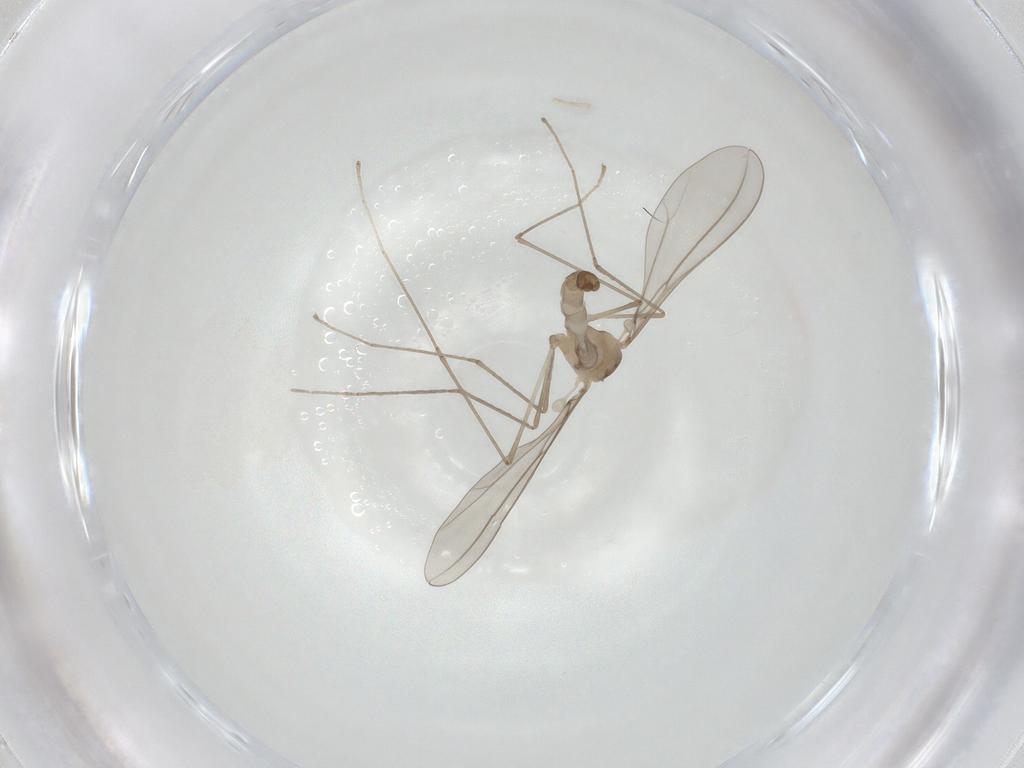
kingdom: Animalia
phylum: Arthropoda
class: Insecta
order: Diptera
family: Cecidomyiidae
